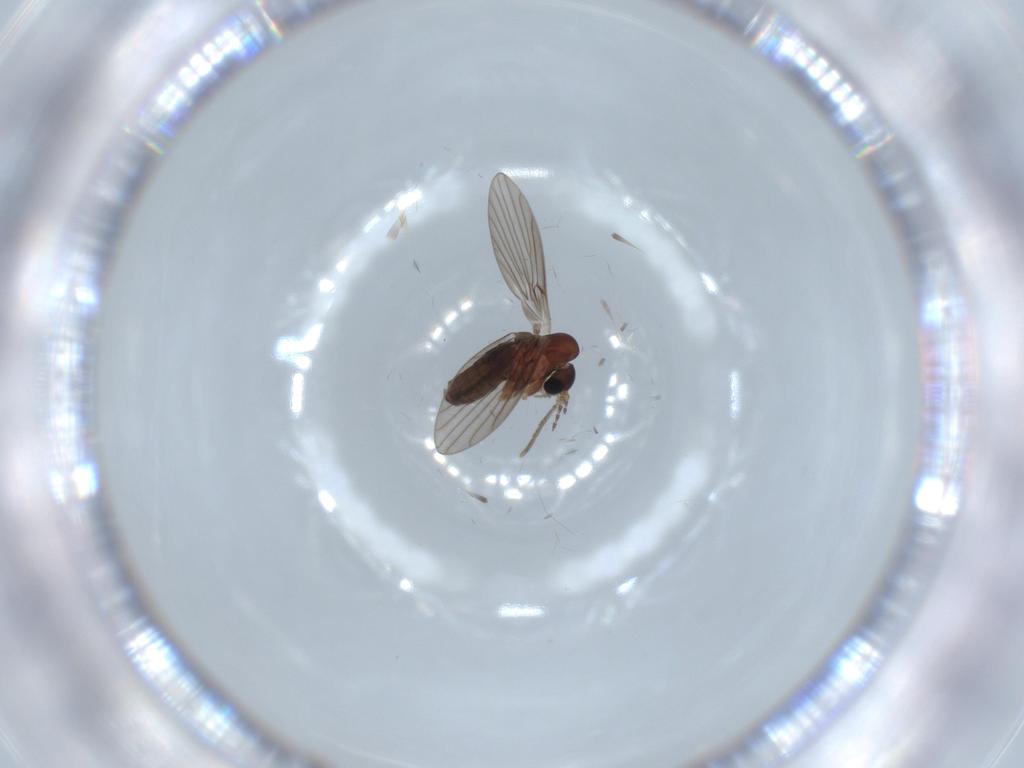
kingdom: Animalia
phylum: Arthropoda
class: Insecta
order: Diptera
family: Psychodidae
